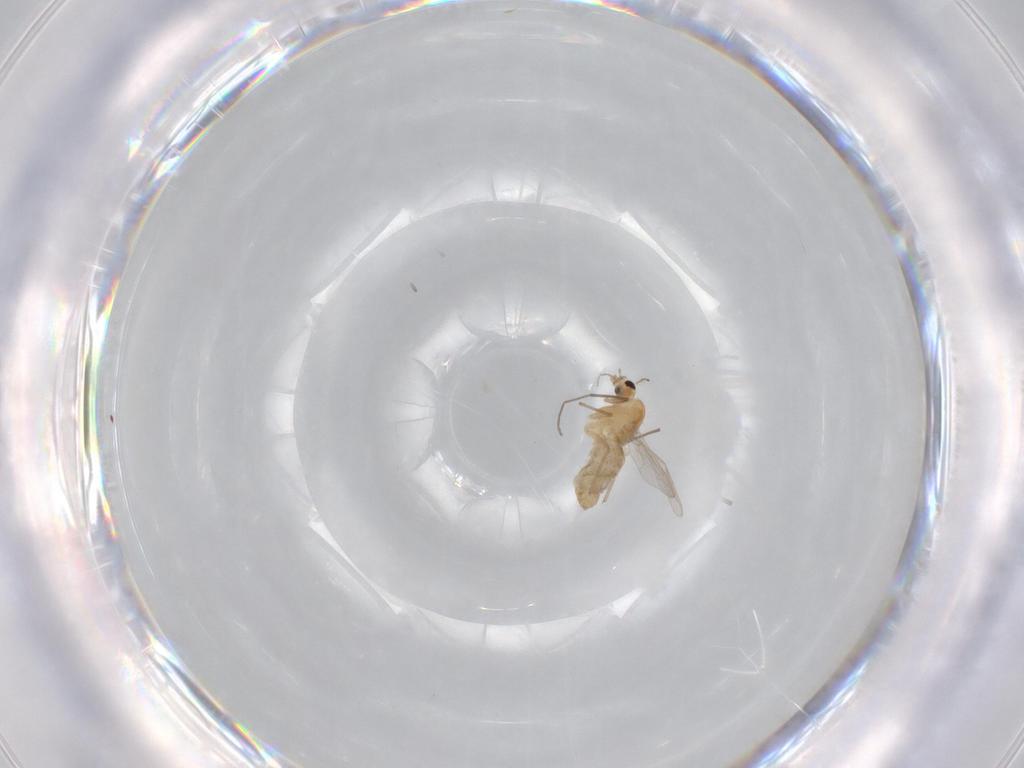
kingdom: Animalia
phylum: Arthropoda
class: Insecta
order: Diptera
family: Chironomidae
